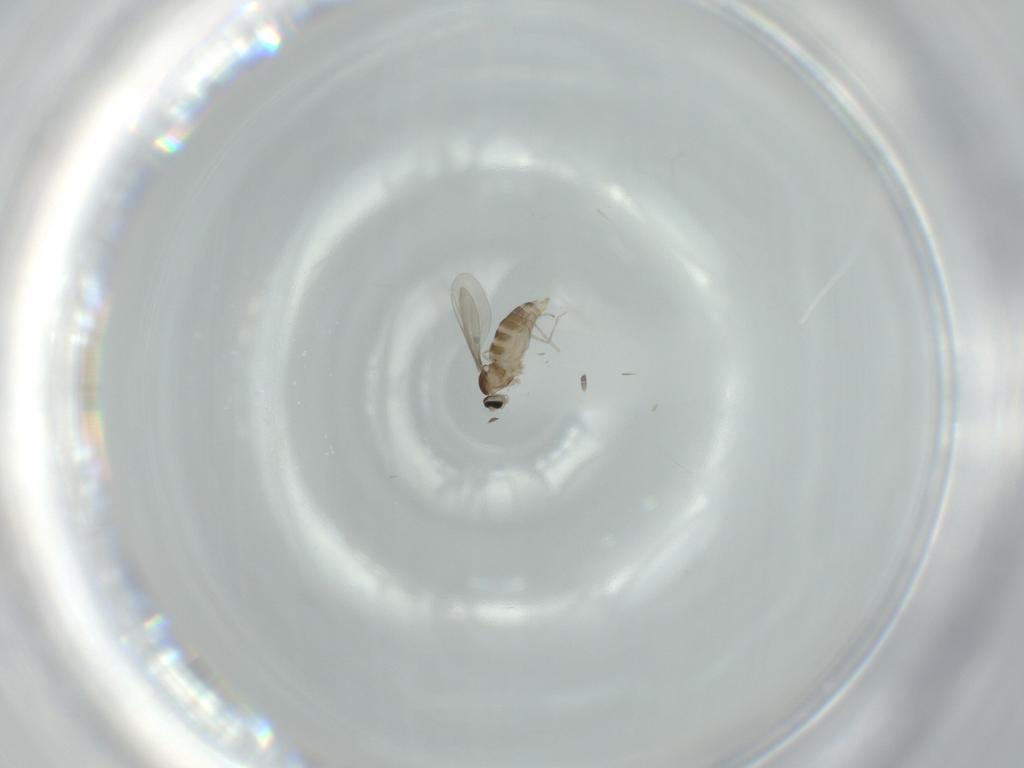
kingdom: Animalia
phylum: Arthropoda
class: Insecta
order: Diptera
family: Cecidomyiidae
